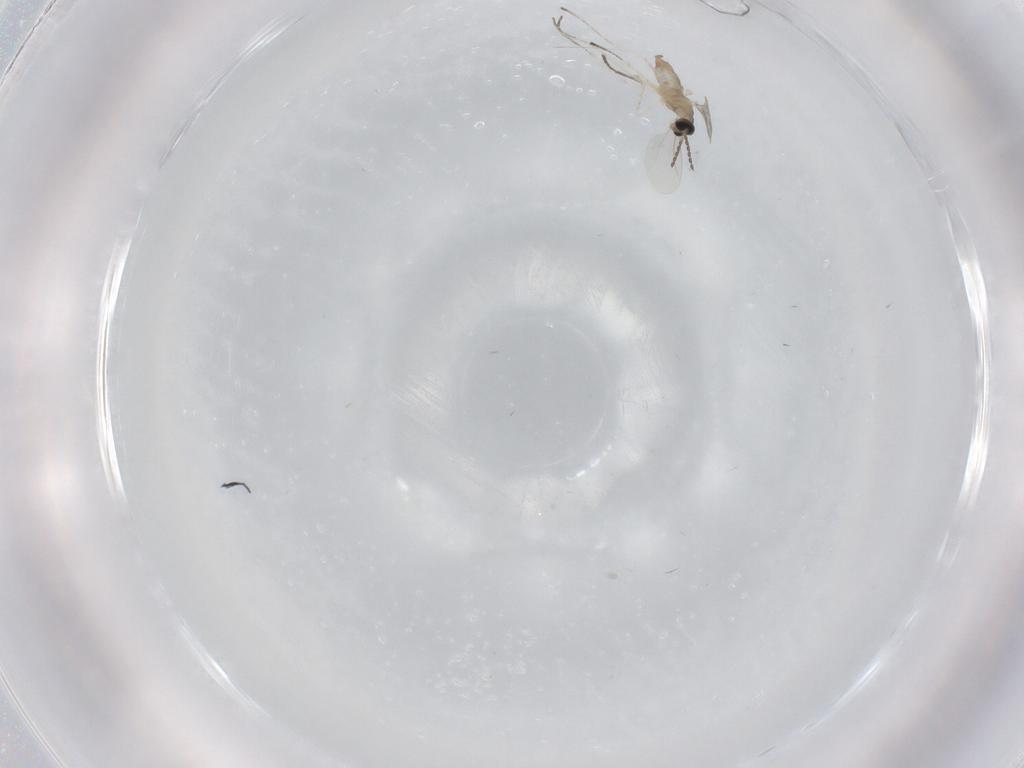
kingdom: Animalia
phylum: Arthropoda
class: Insecta
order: Diptera
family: Cecidomyiidae
